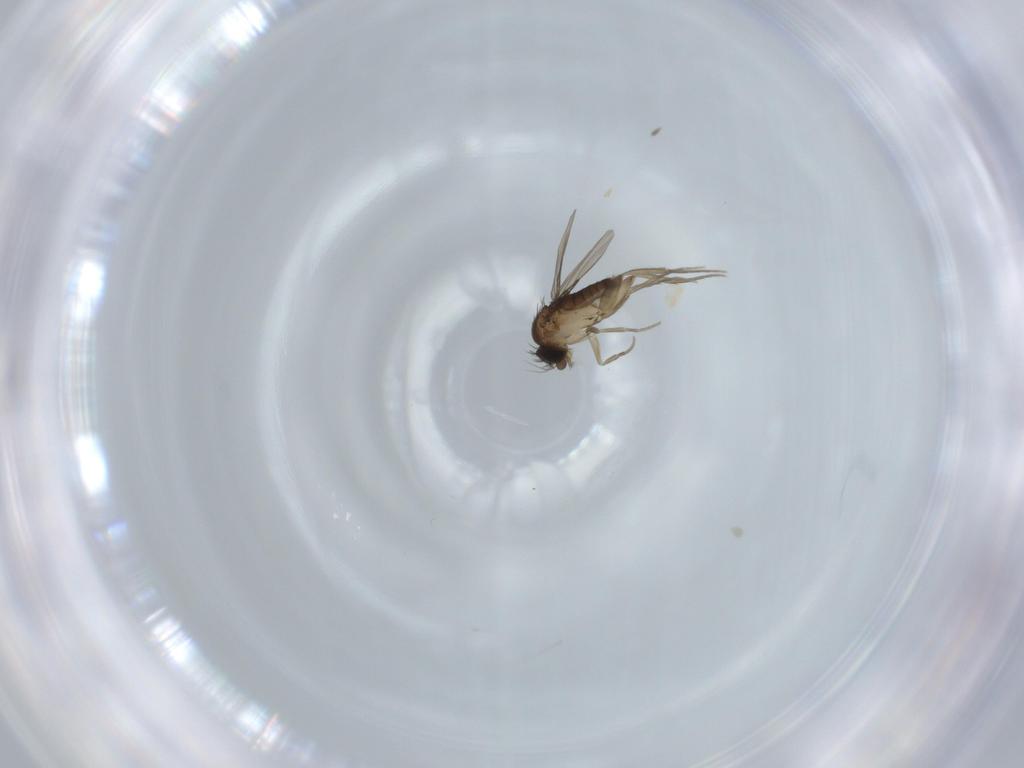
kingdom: Animalia
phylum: Arthropoda
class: Insecta
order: Diptera
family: Phoridae
